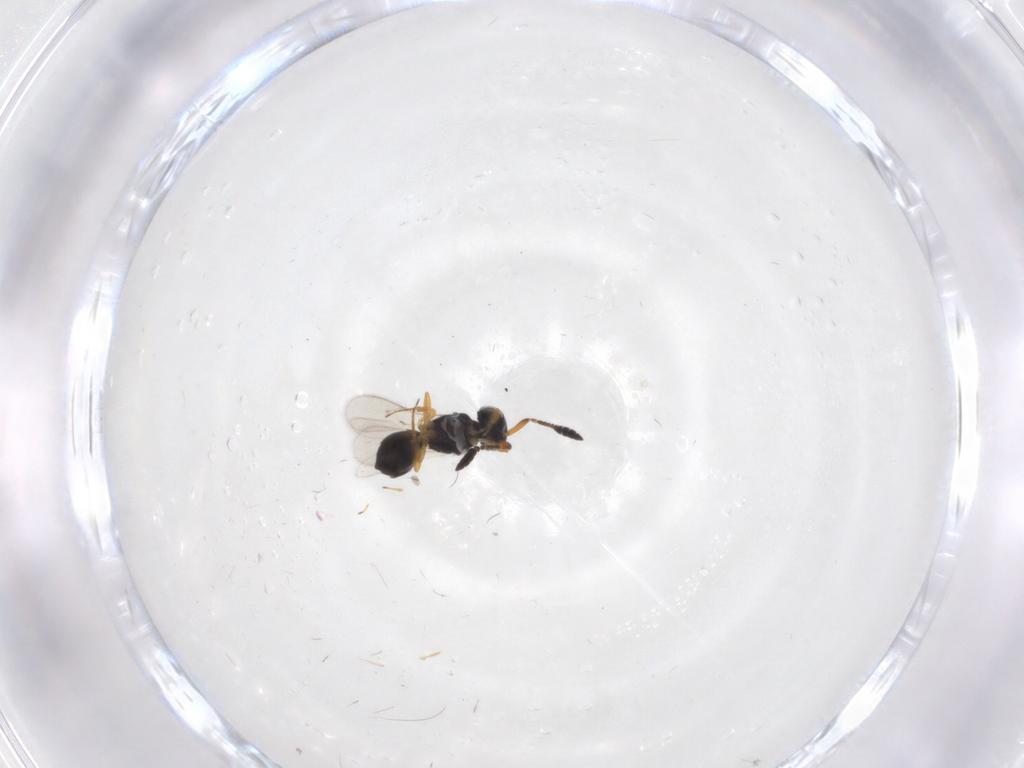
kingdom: Animalia
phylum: Arthropoda
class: Insecta
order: Hymenoptera
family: Scelionidae
